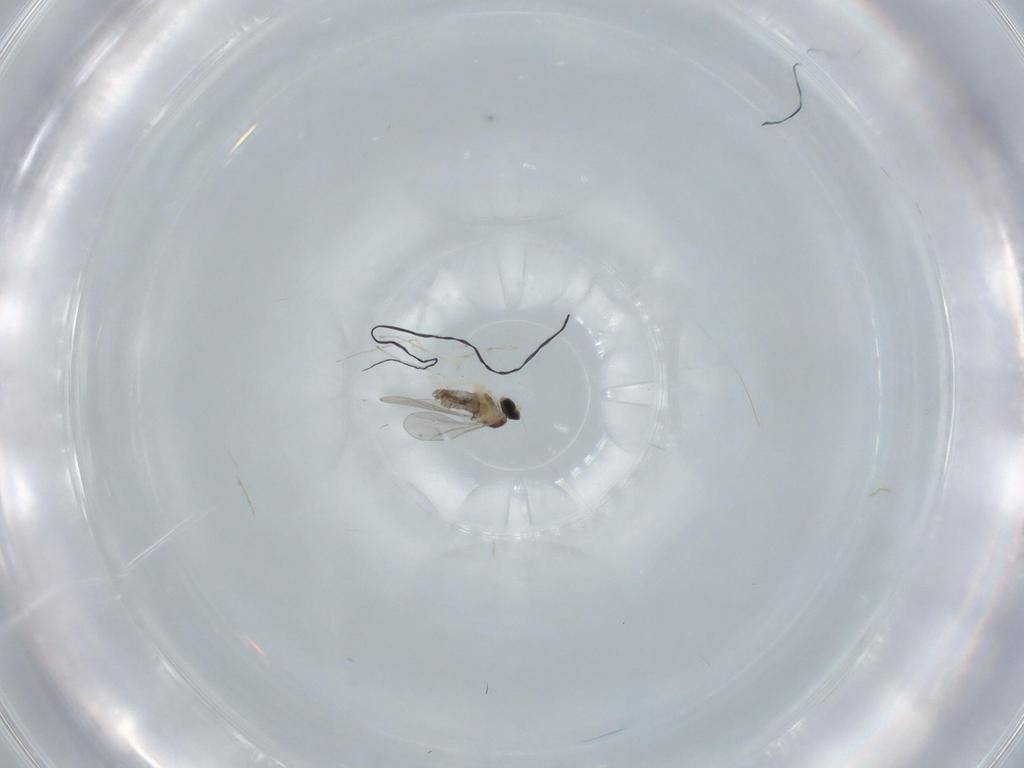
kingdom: Animalia
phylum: Arthropoda
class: Insecta
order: Diptera
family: Cecidomyiidae
